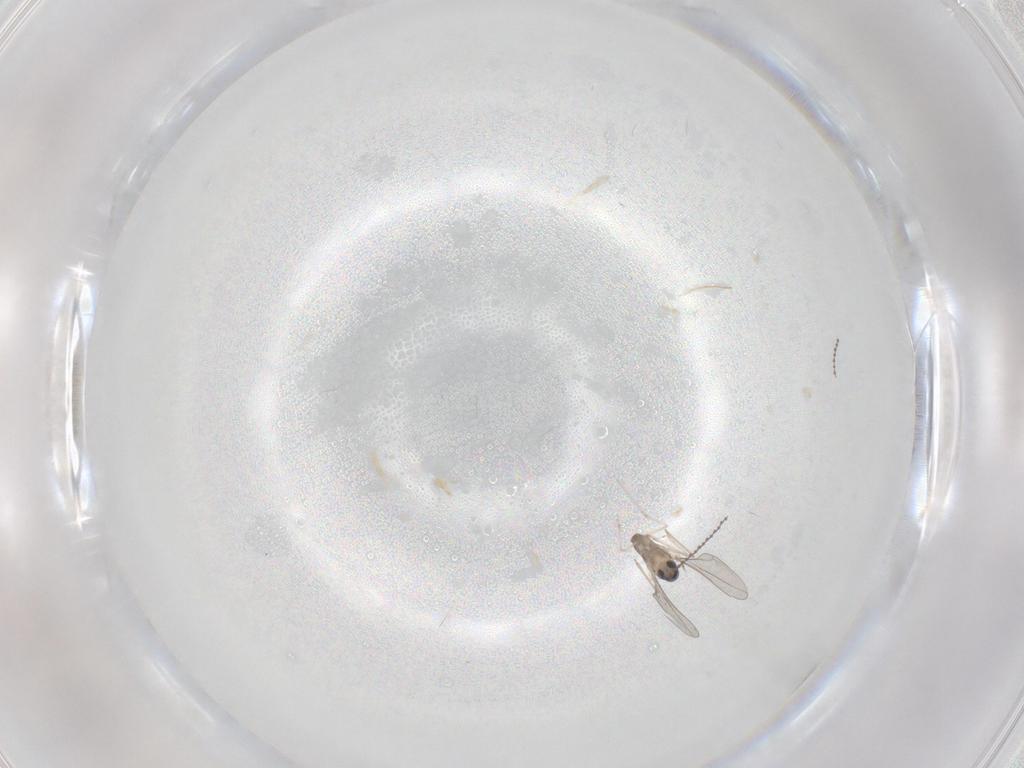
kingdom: Animalia
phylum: Arthropoda
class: Insecta
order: Diptera
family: Cecidomyiidae
